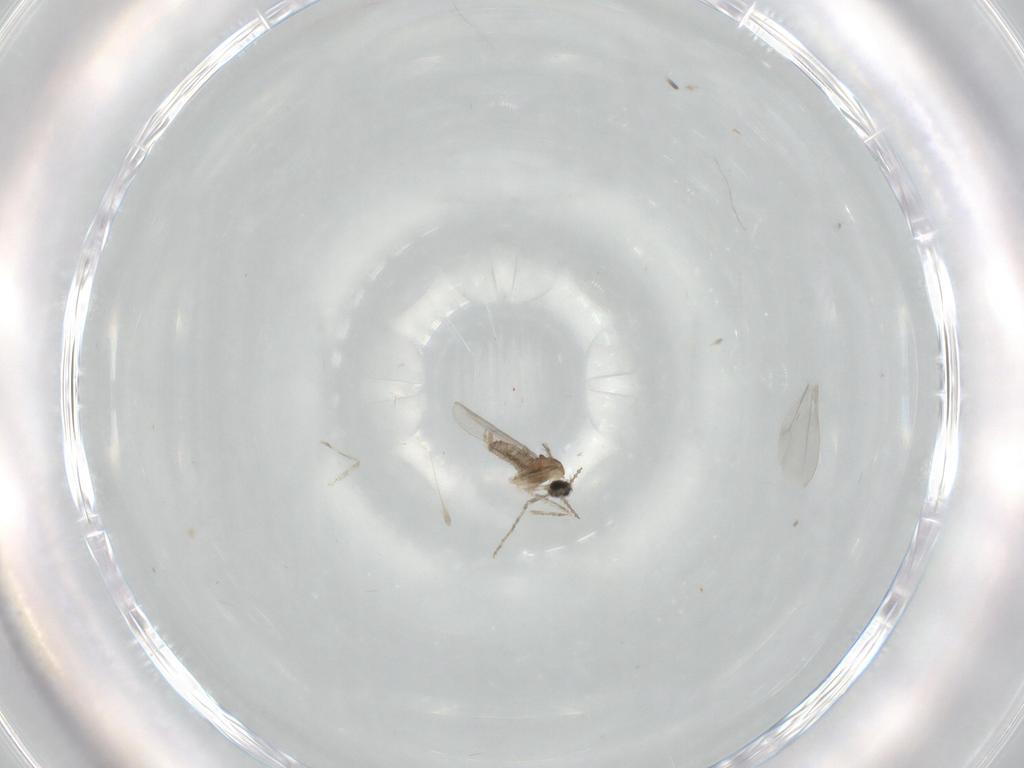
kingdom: Animalia
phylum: Arthropoda
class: Insecta
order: Diptera
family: Cecidomyiidae
